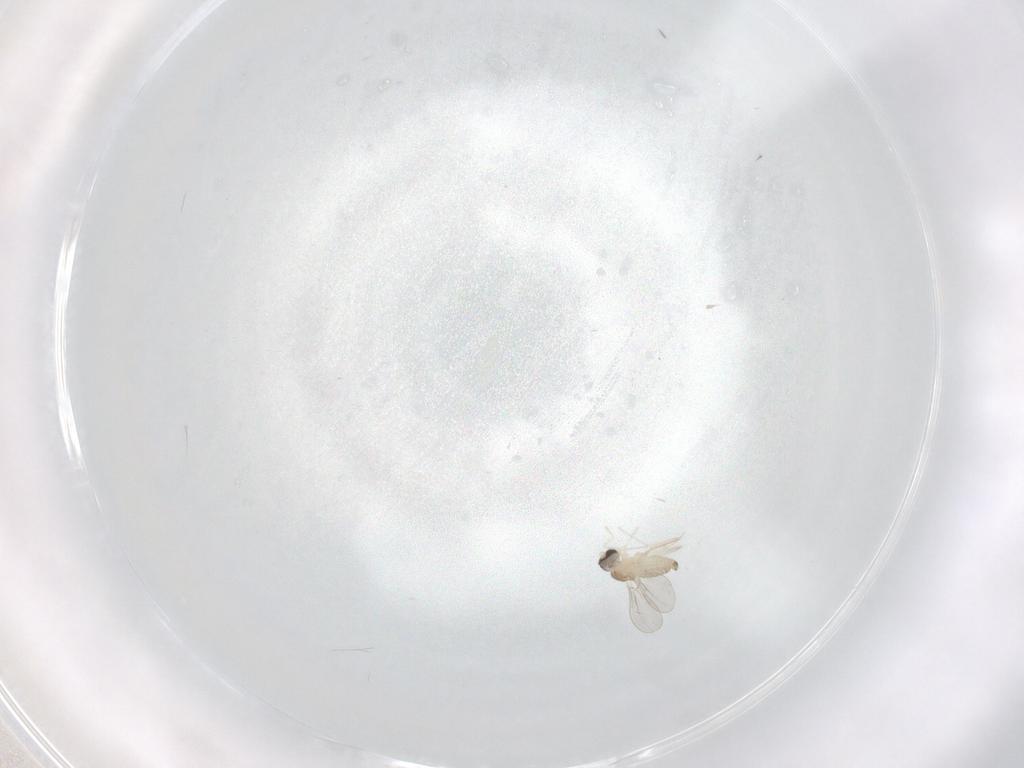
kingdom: Animalia
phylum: Arthropoda
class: Insecta
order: Diptera
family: Cecidomyiidae
